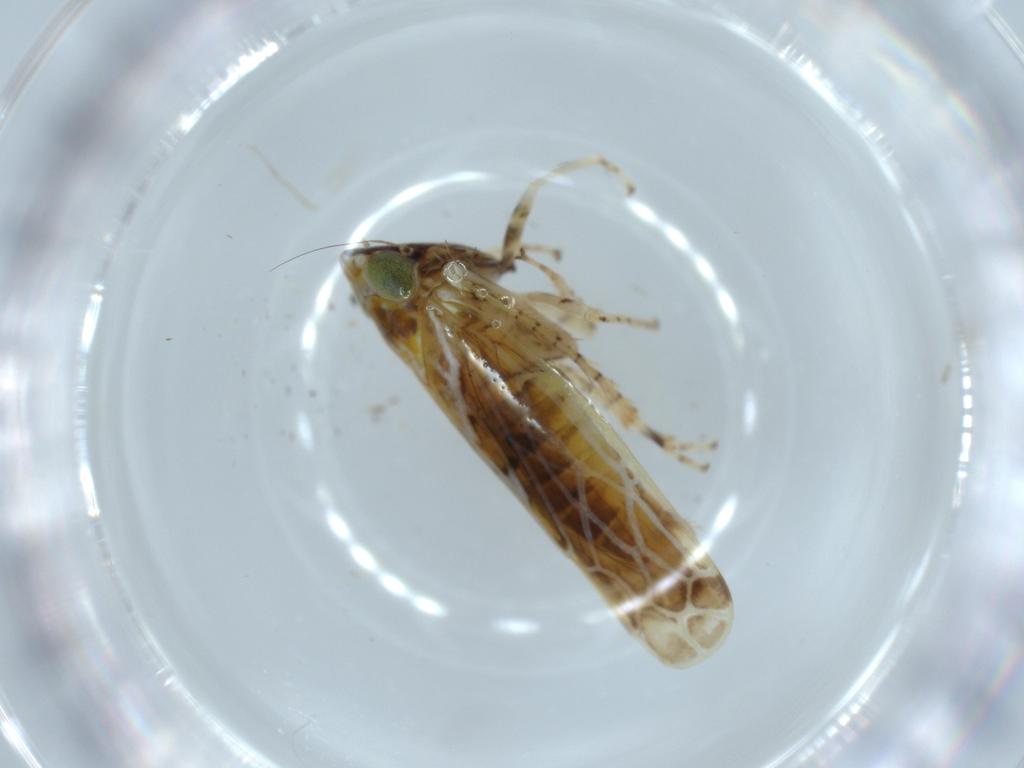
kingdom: Animalia
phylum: Arthropoda
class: Insecta
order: Hemiptera
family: Cicadellidae
